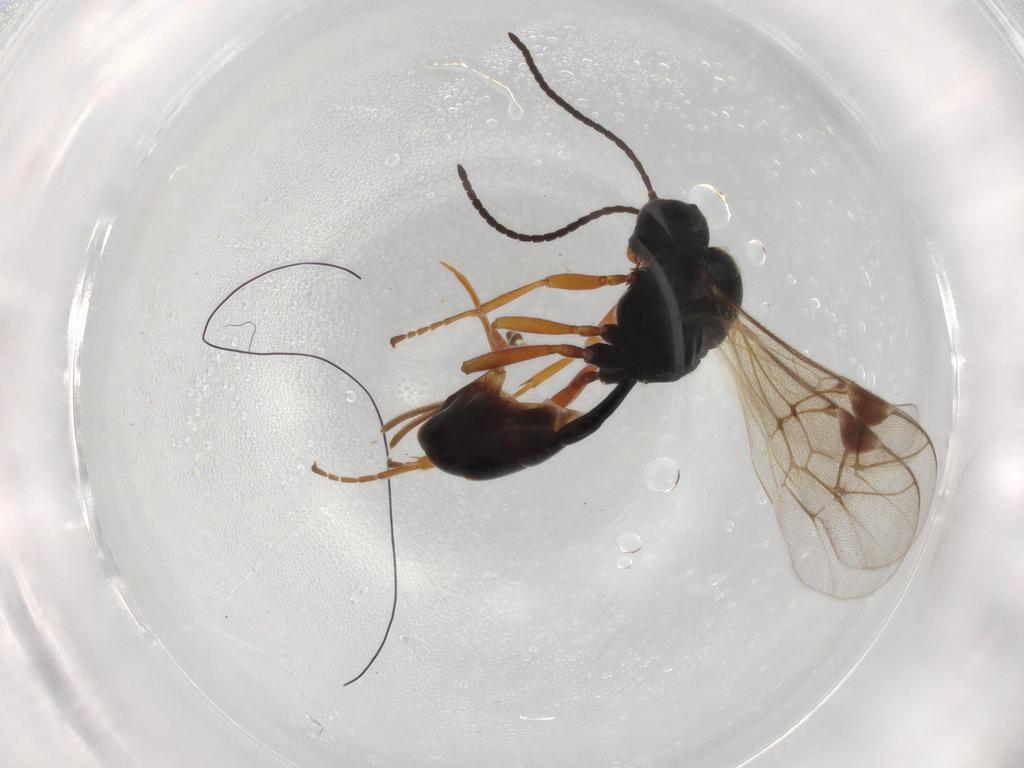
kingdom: Animalia
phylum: Arthropoda
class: Insecta
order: Hymenoptera
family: Ichneumonidae
